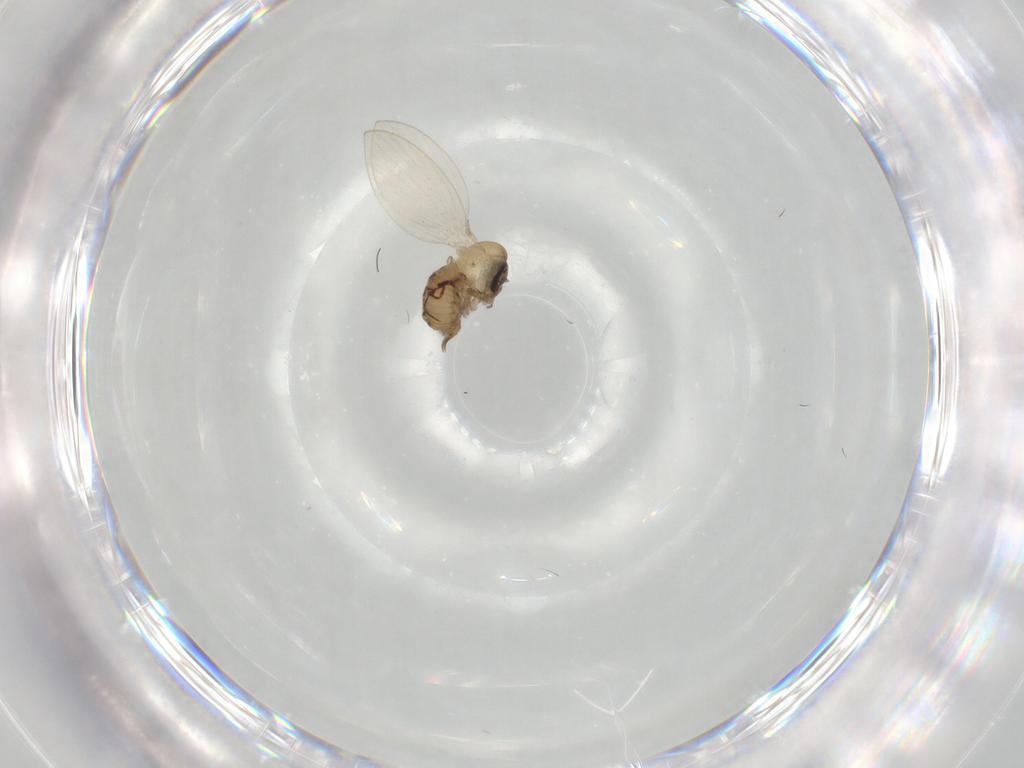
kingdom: Animalia
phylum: Arthropoda
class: Insecta
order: Diptera
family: Psychodidae
